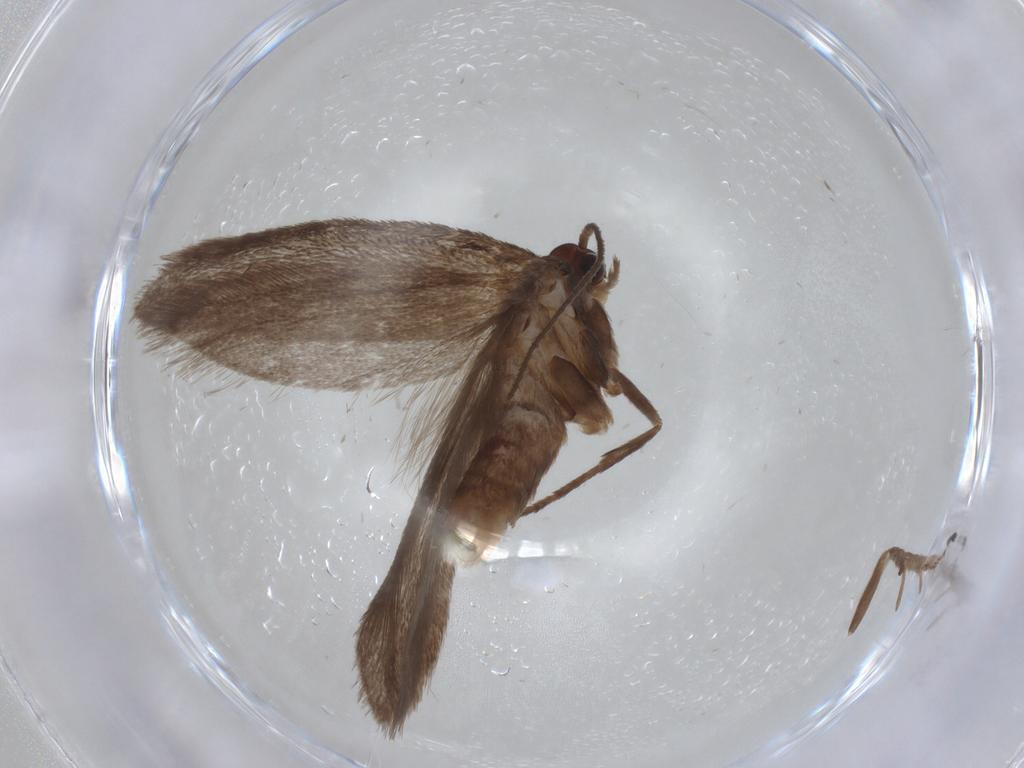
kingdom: Animalia
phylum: Arthropoda
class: Insecta
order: Lepidoptera
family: Limacodidae
